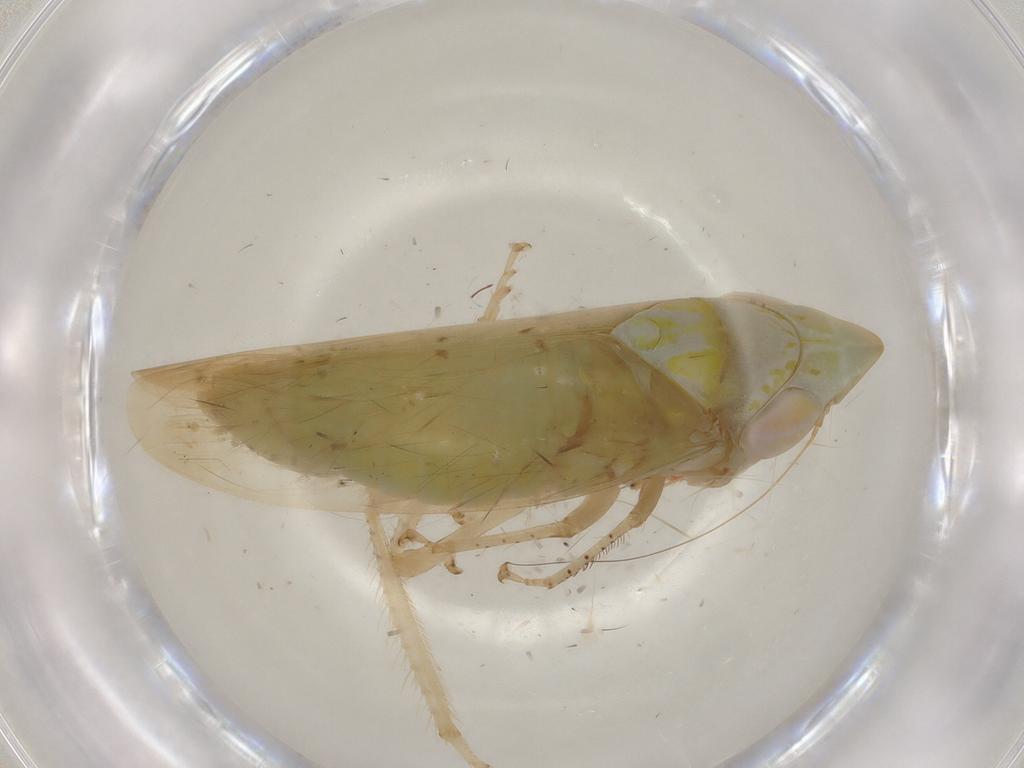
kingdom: Animalia
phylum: Arthropoda
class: Insecta
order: Hemiptera
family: Cicadellidae
